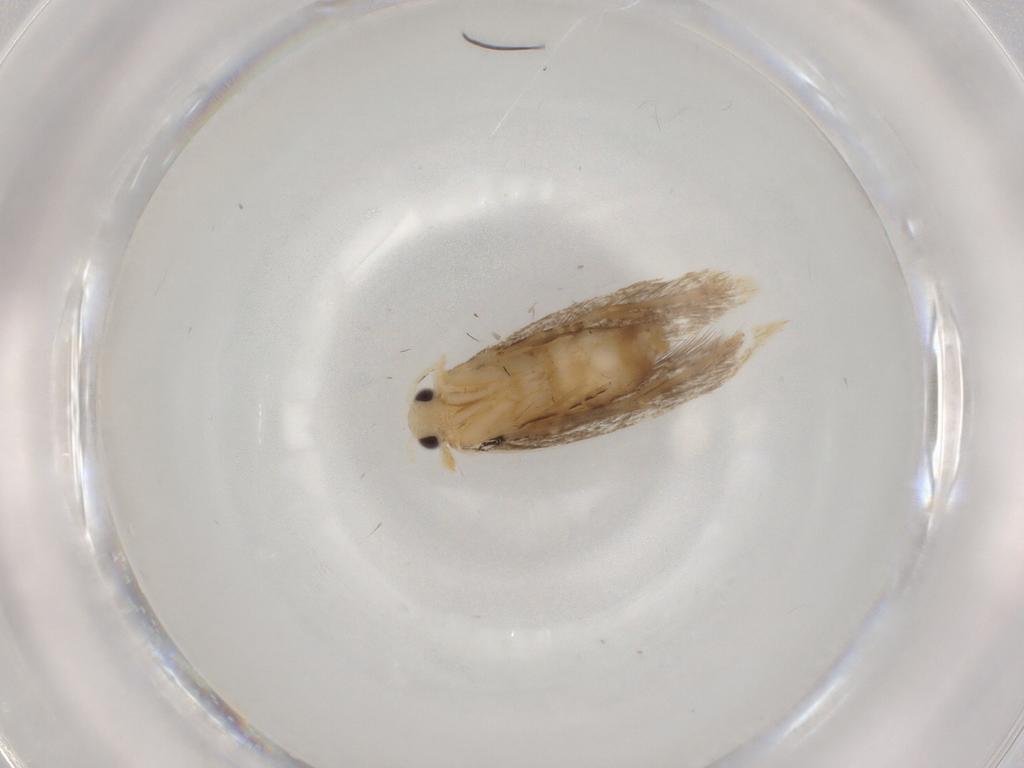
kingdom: Animalia
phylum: Arthropoda
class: Insecta
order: Lepidoptera
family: Dryadaulidae
